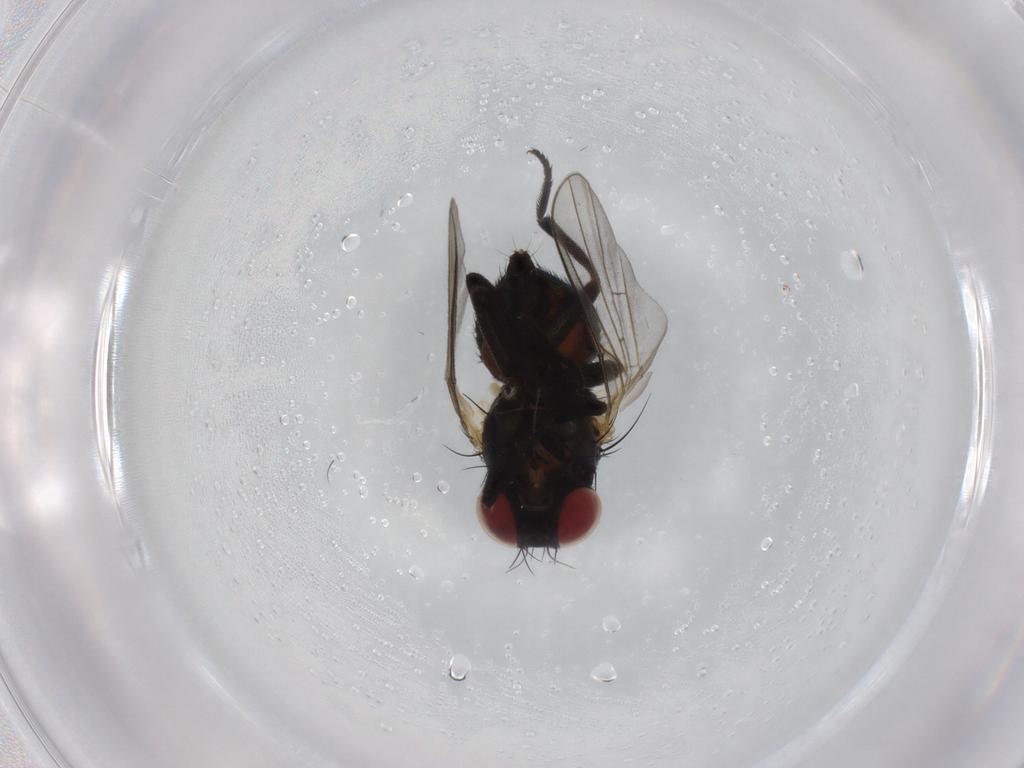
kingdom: Animalia
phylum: Arthropoda
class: Insecta
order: Diptera
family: Agromyzidae
